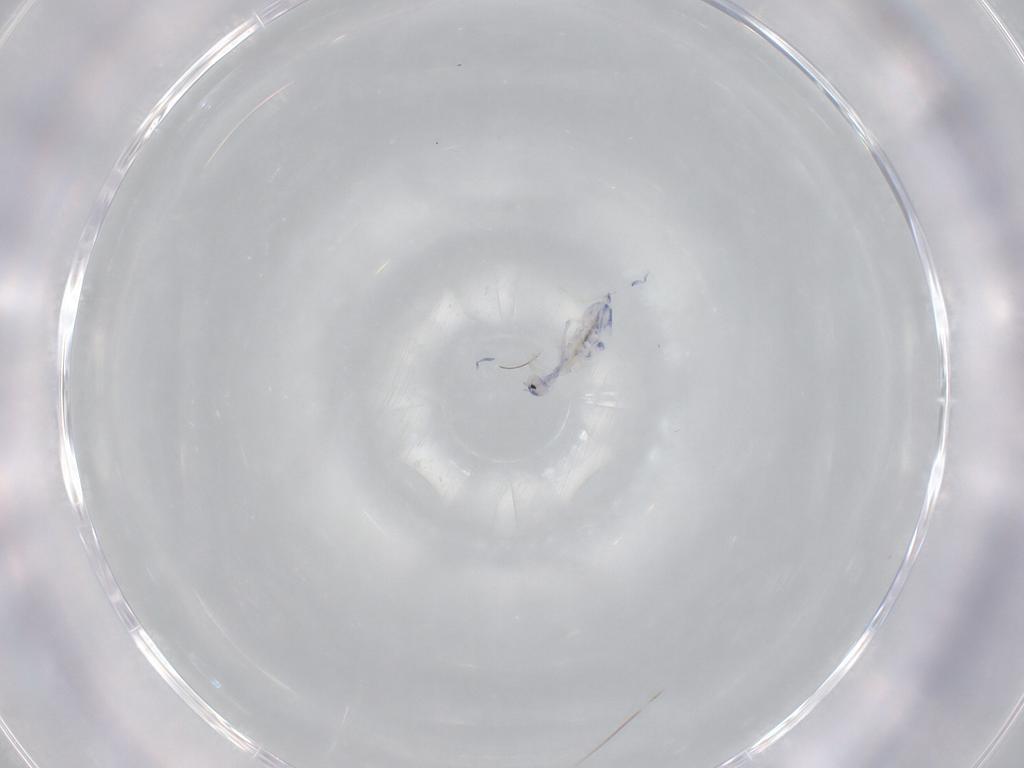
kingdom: Animalia
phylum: Arthropoda
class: Collembola
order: Entomobryomorpha
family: Entomobryidae
